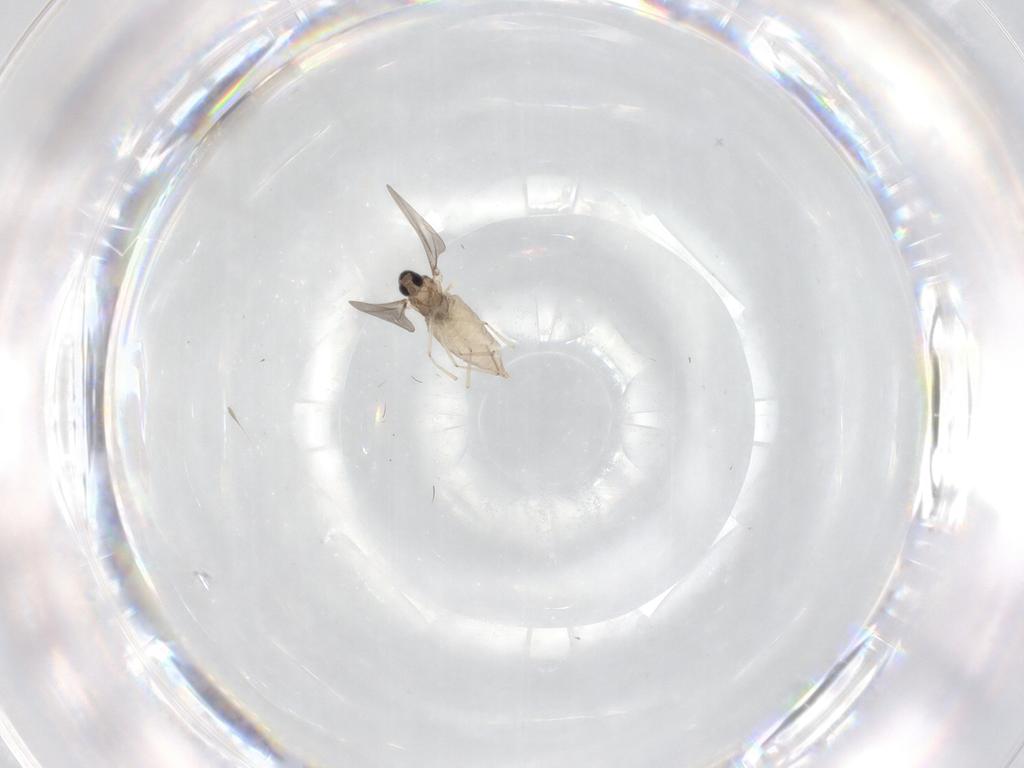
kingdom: Animalia
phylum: Arthropoda
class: Insecta
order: Diptera
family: Cecidomyiidae
